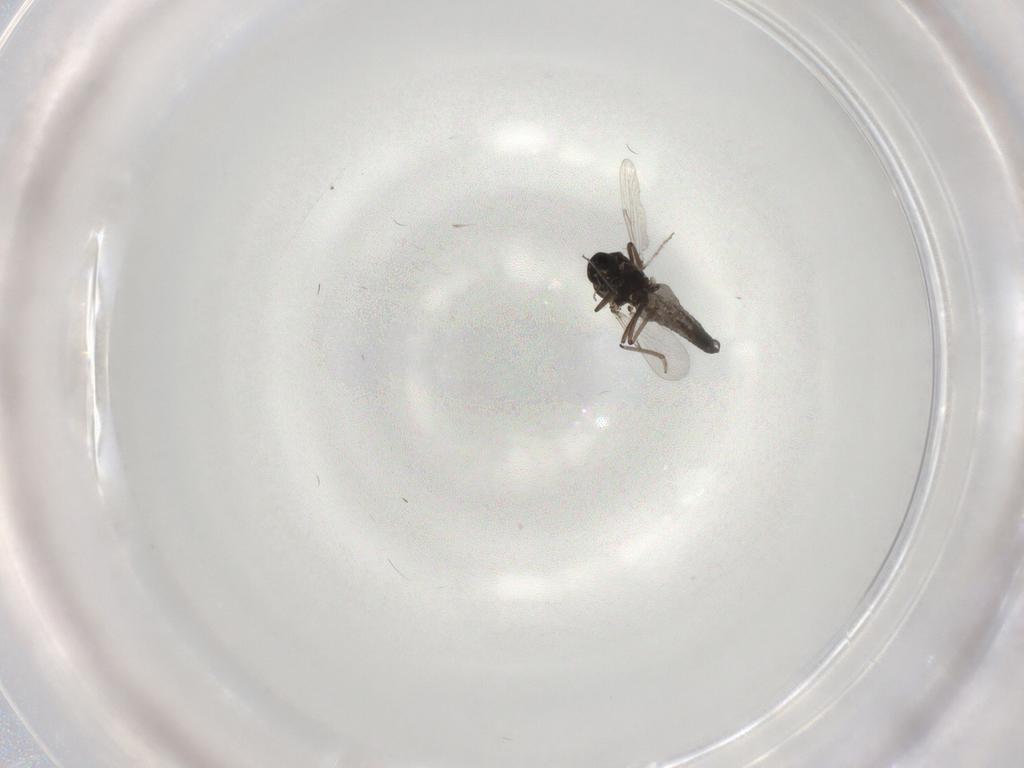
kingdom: Animalia
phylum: Arthropoda
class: Insecta
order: Diptera
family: Ceratopogonidae
